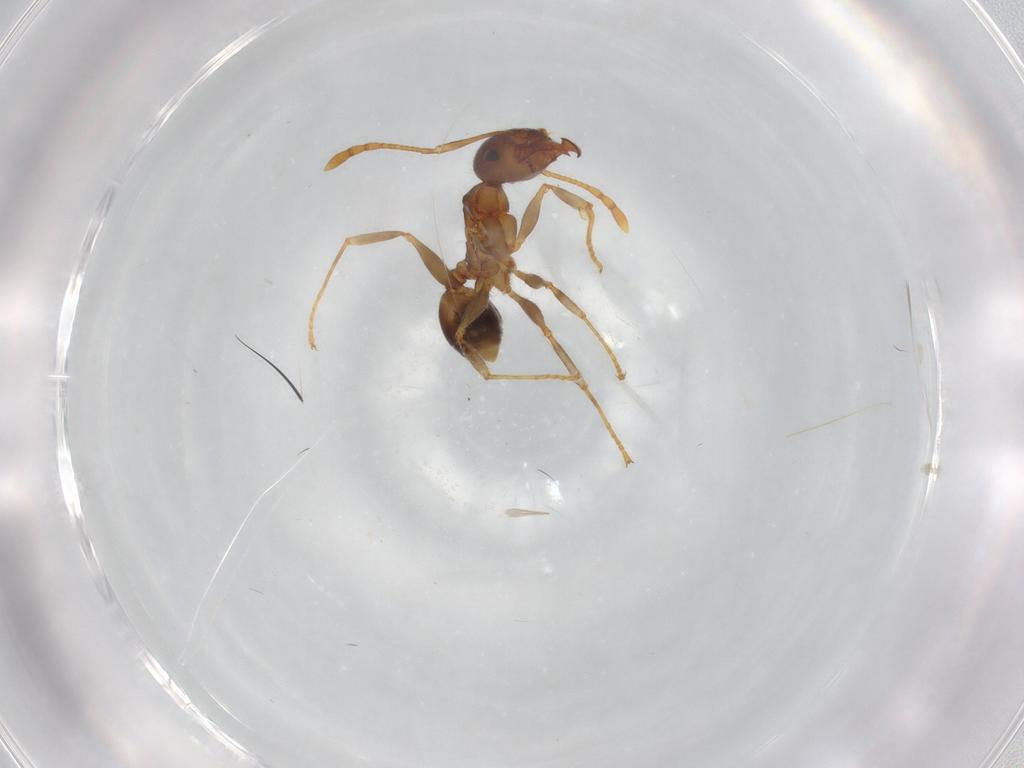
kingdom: Animalia
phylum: Arthropoda
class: Insecta
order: Hymenoptera
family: Formicidae
